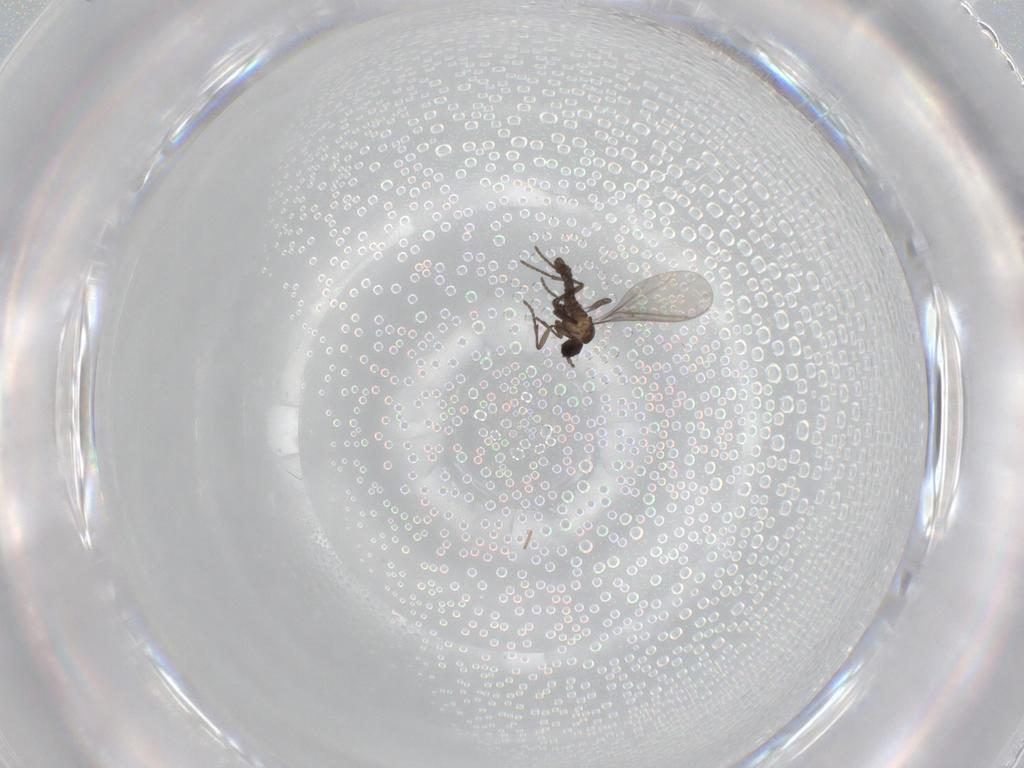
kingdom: Animalia
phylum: Arthropoda
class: Insecta
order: Diptera
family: Sciaridae
